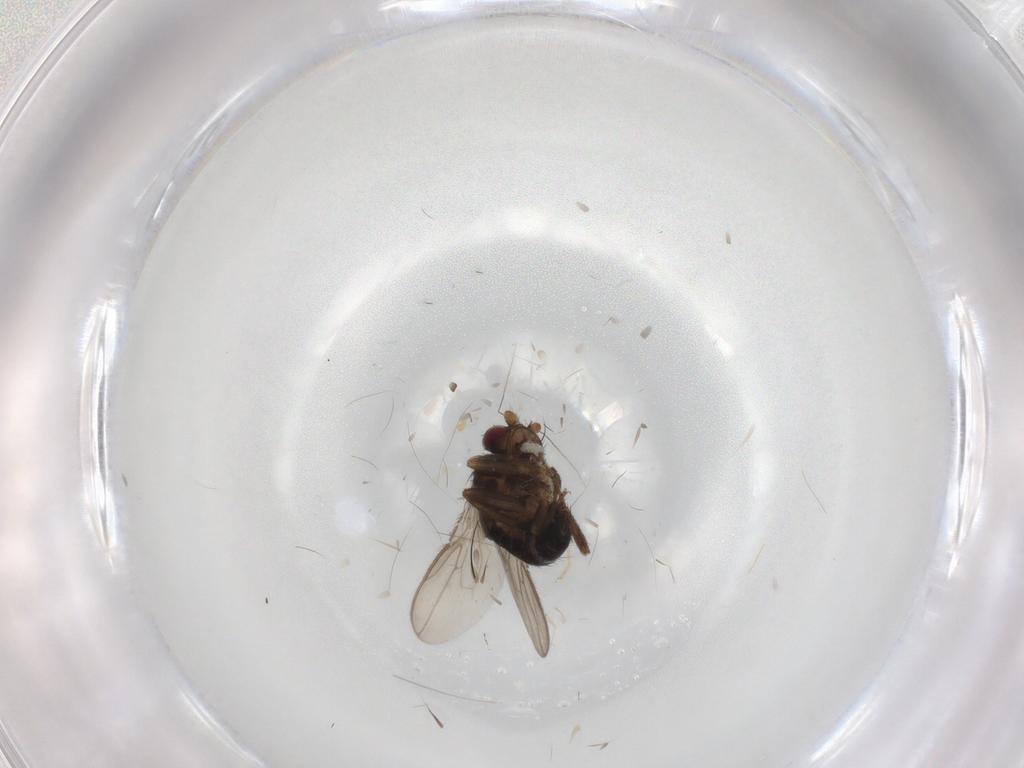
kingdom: Animalia
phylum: Arthropoda
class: Insecta
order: Diptera
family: Sphaeroceridae
